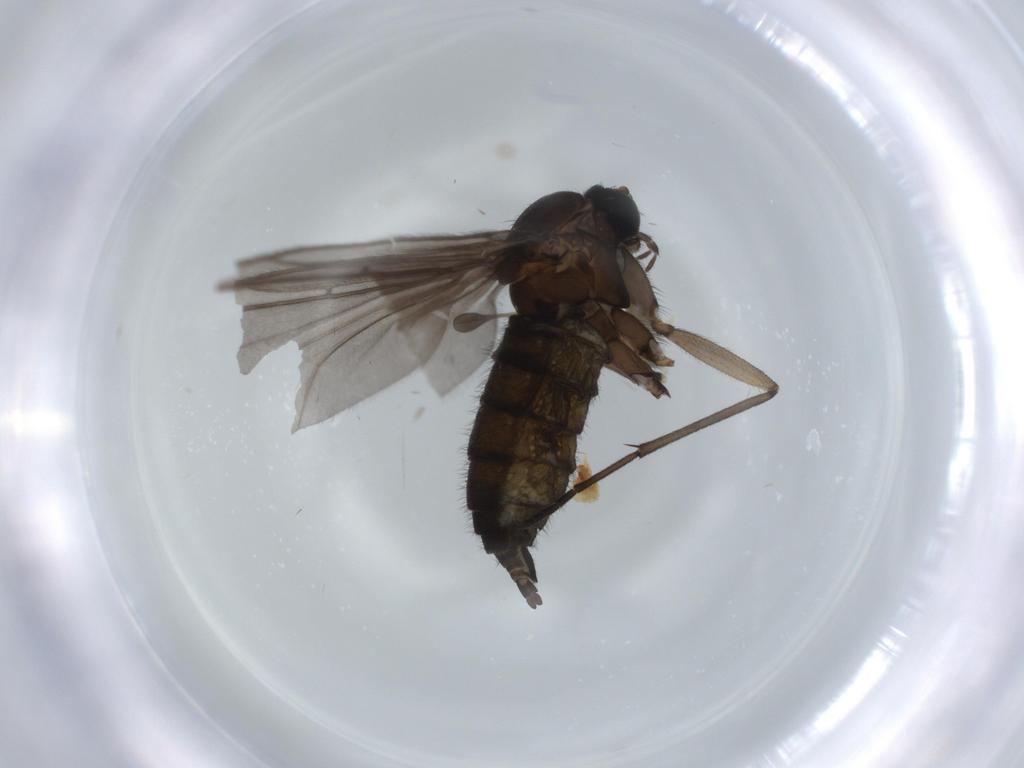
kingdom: Animalia
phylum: Arthropoda
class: Insecta
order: Diptera
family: Sciaridae
